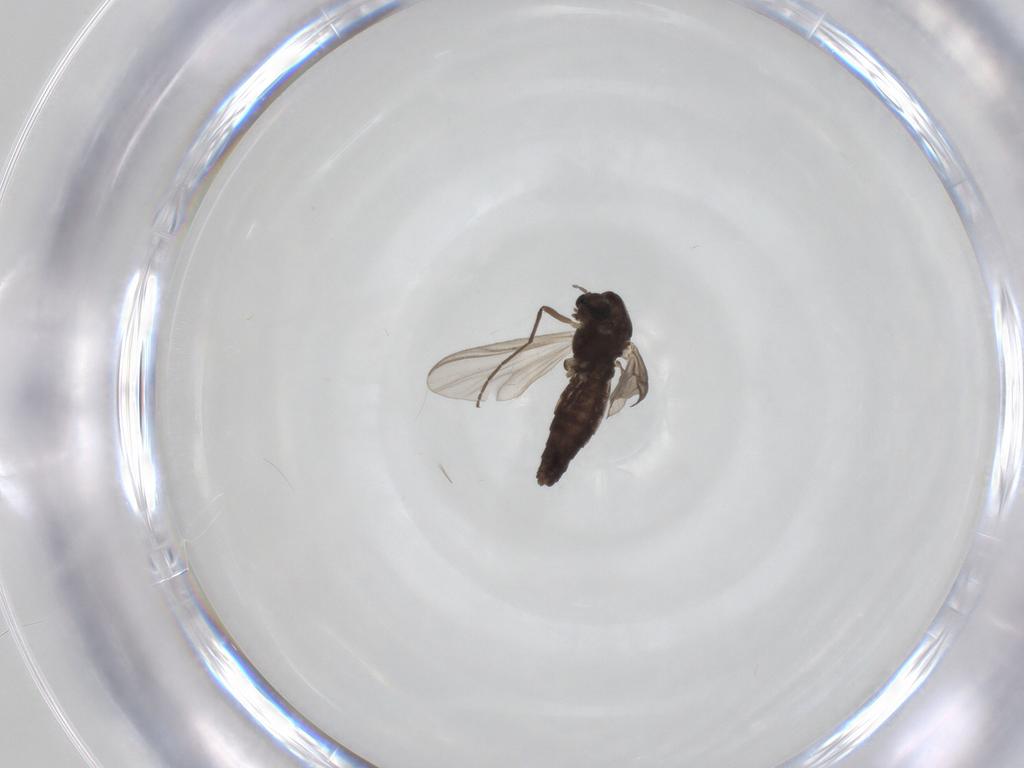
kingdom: Animalia
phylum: Arthropoda
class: Insecta
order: Diptera
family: Chironomidae
